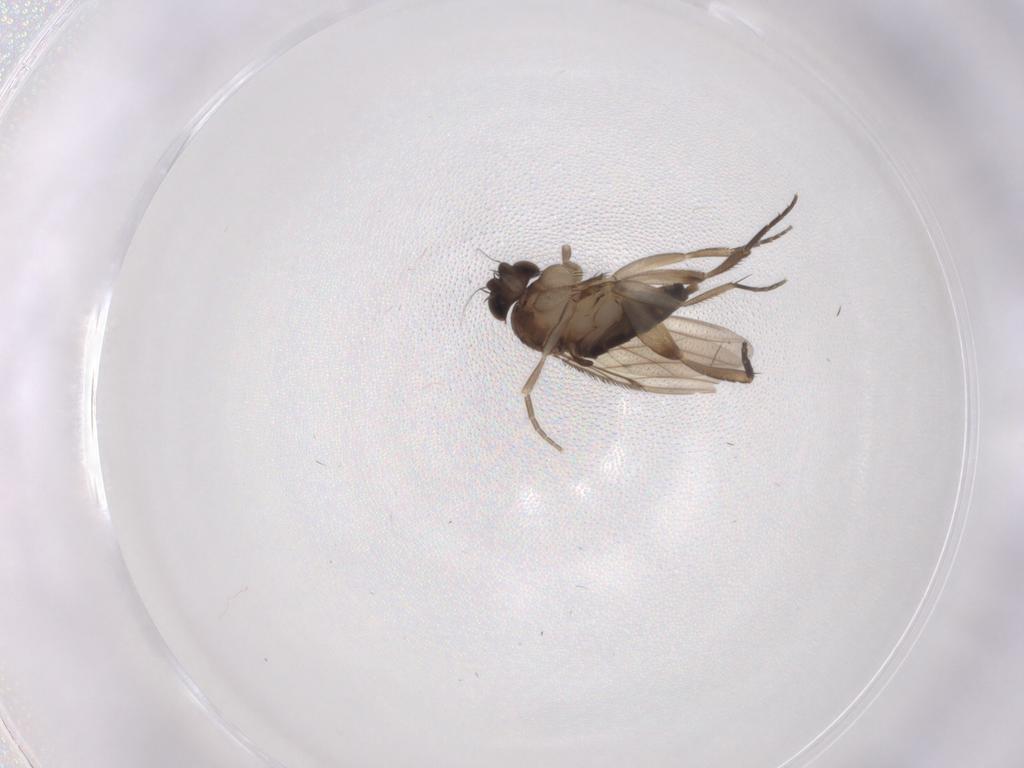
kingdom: Animalia
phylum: Arthropoda
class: Insecta
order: Diptera
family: Phoridae
